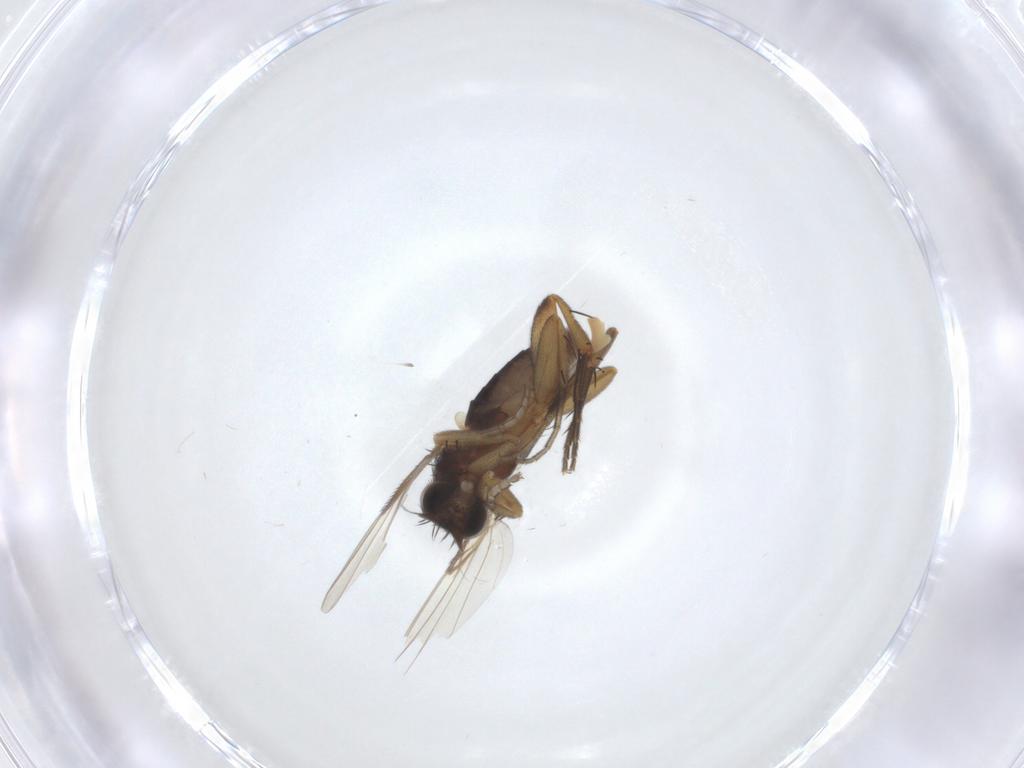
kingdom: Animalia
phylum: Arthropoda
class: Insecta
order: Diptera
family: Phoridae
